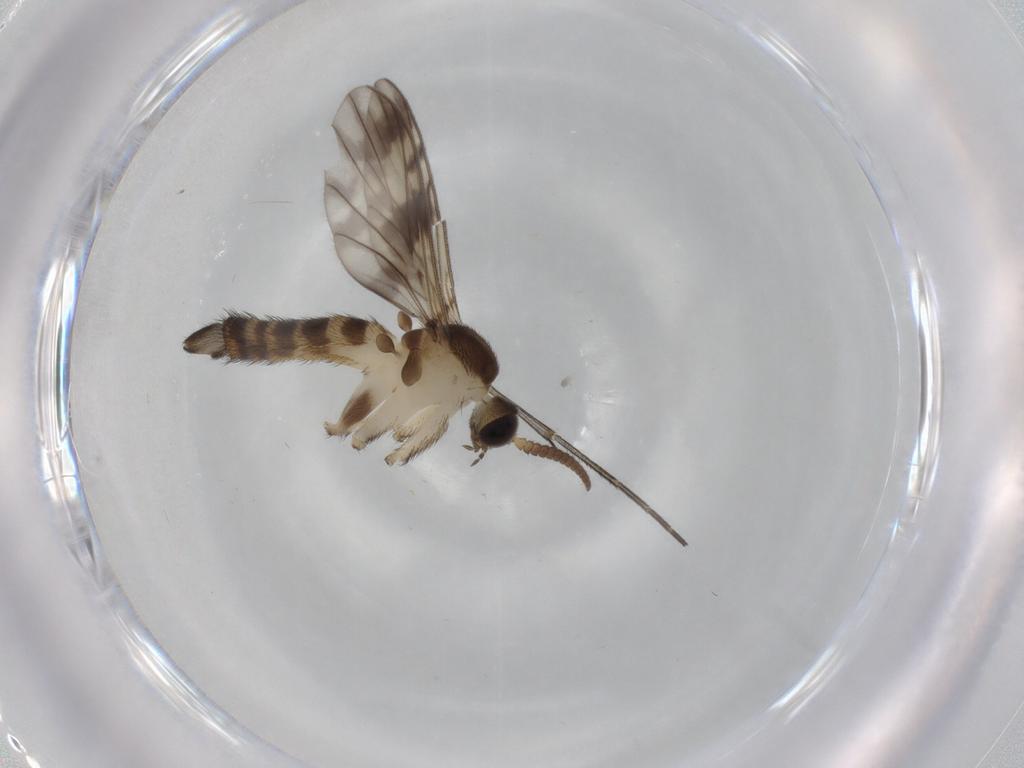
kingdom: Animalia
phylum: Arthropoda
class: Insecta
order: Diptera
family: Keroplatidae
